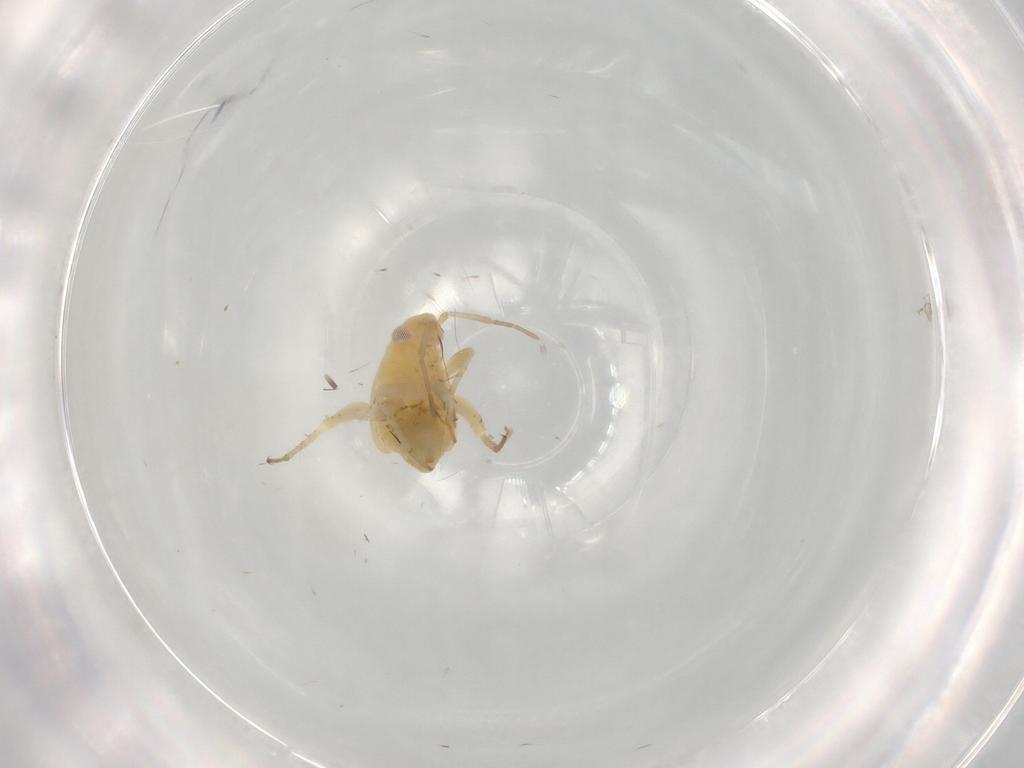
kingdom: Animalia
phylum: Arthropoda
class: Insecta
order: Hemiptera
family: Miridae
